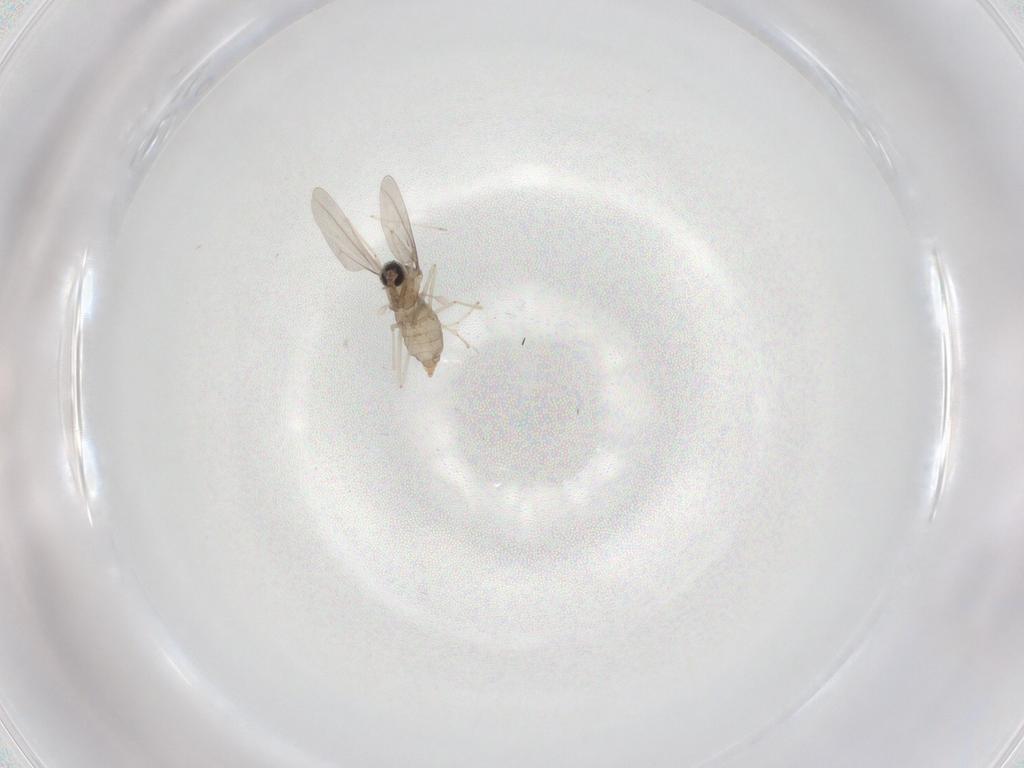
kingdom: Animalia
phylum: Arthropoda
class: Insecta
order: Diptera
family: Cecidomyiidae
